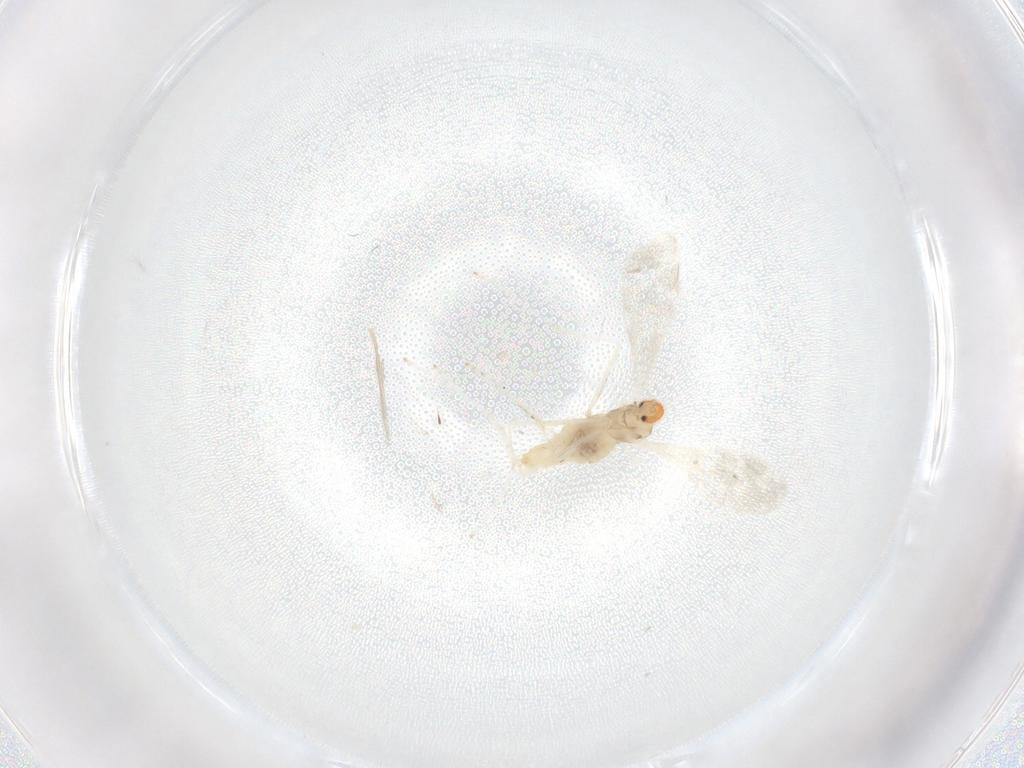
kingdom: Animalia
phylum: Arthropoda
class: Insecta
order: Diptera
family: Cecidomyiidae
